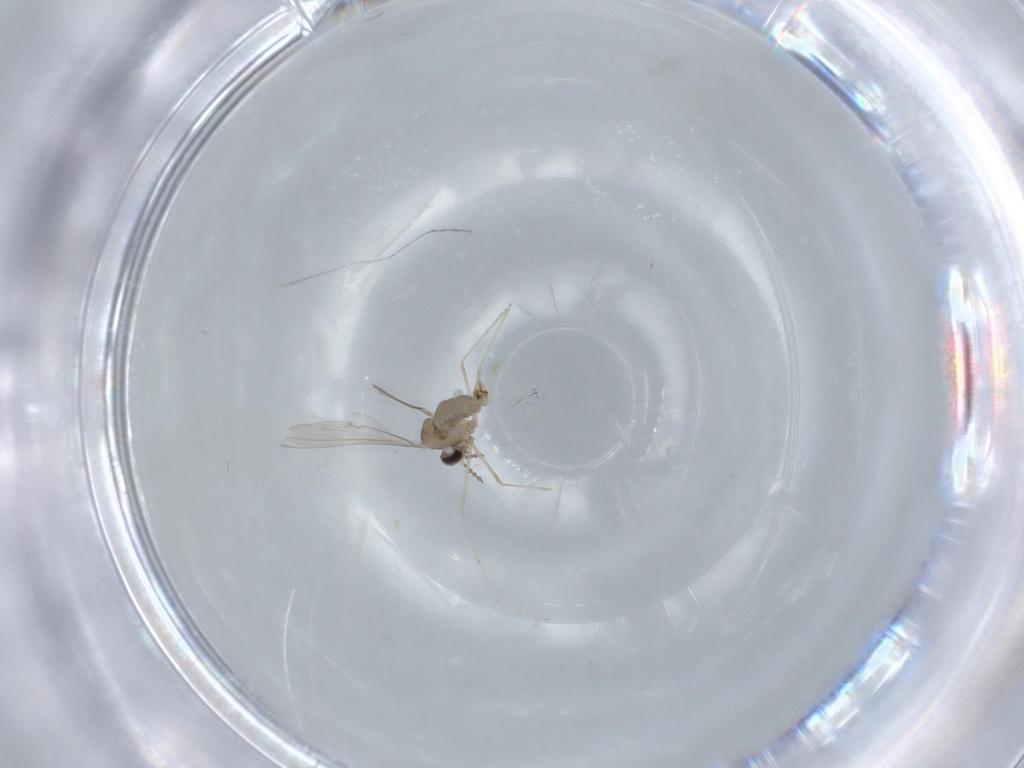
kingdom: Animalia
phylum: Arthropoda
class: Insecta
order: Diptera
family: Cecidomyiidae
